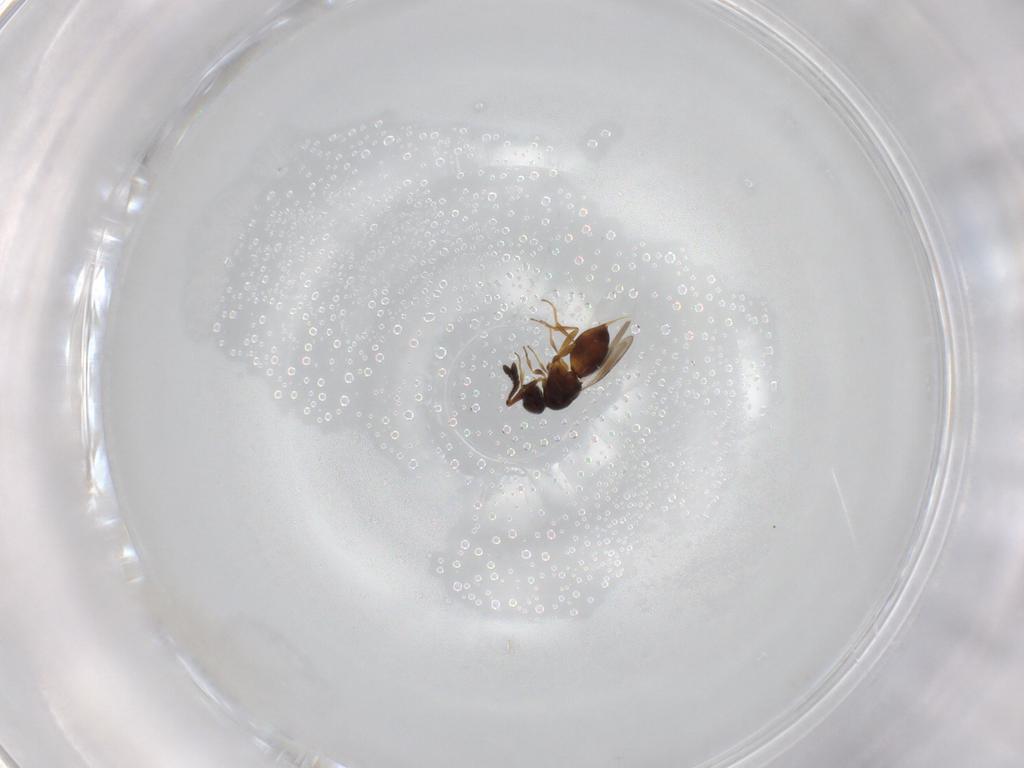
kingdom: Animalia
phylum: Arthropoda
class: Insecta
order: Hymenoptera
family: Ceraphronidae
